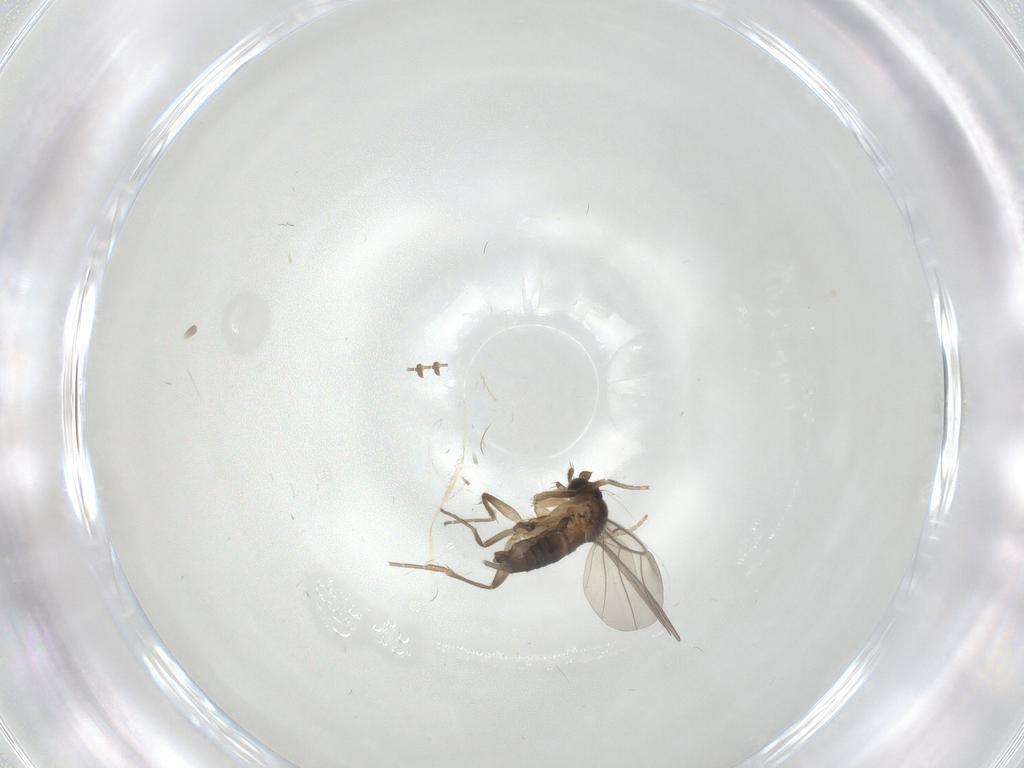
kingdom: Animalia
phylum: Arthropoda
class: Insecta
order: Diptera
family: Phoridae
